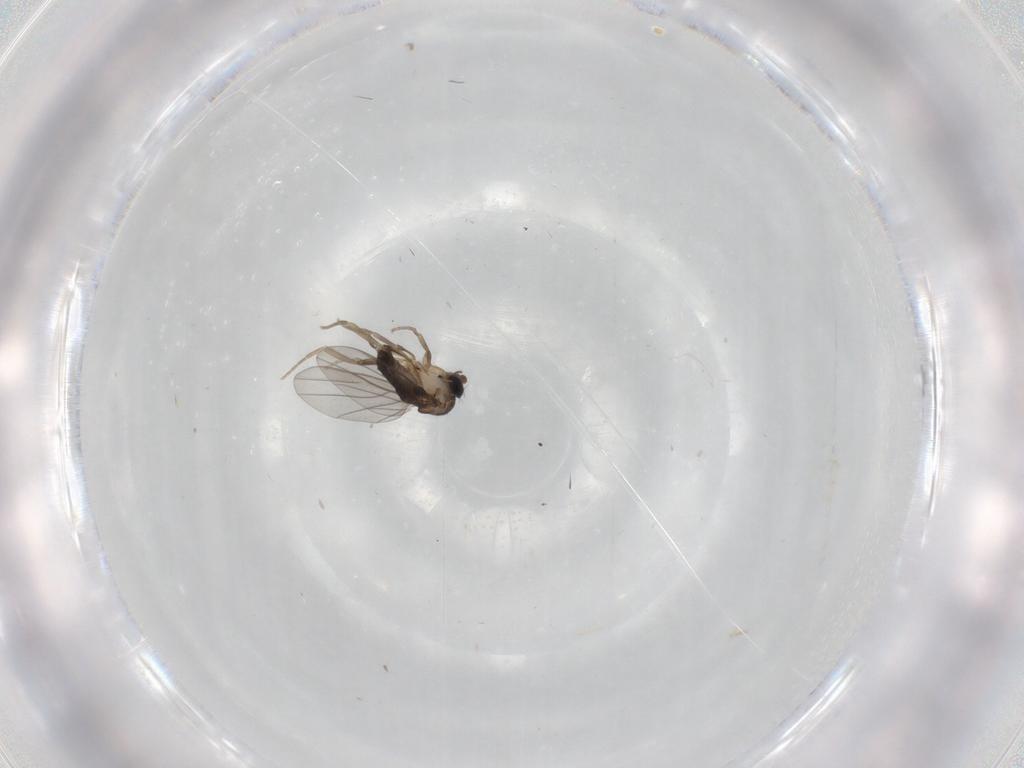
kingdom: Animalia
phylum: Arthropoda
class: Insecta
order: Diptera
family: Phoridae
